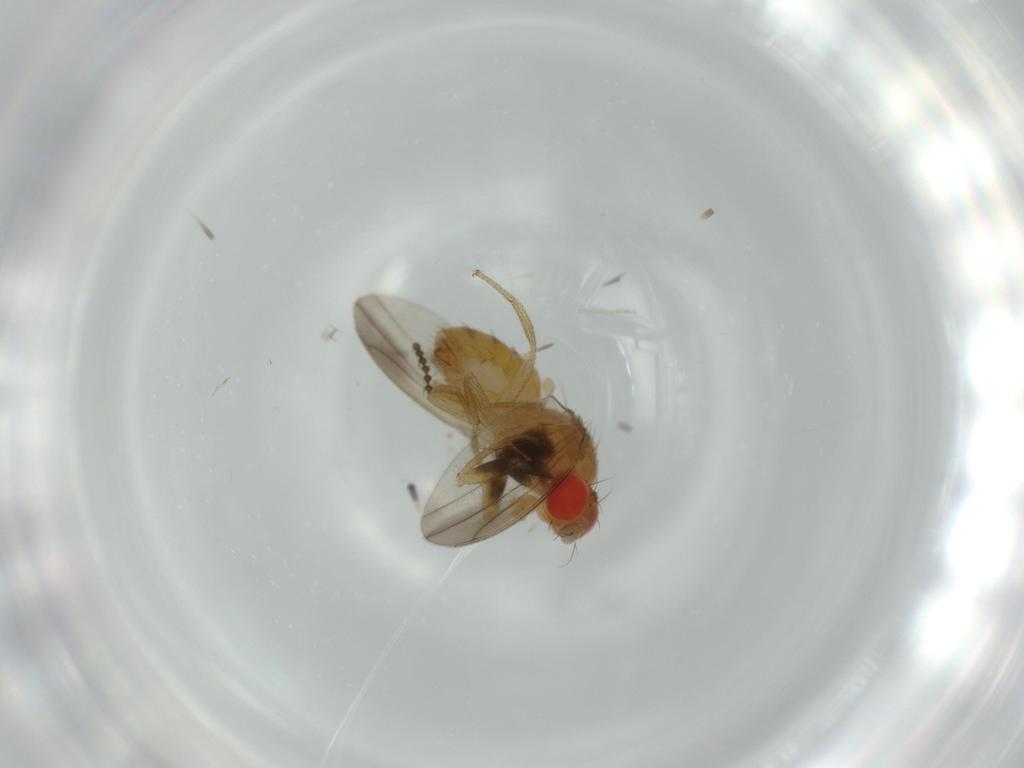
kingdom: Animalia
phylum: Arthropoda
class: Insecta
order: Diptera
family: Drosophilidae
